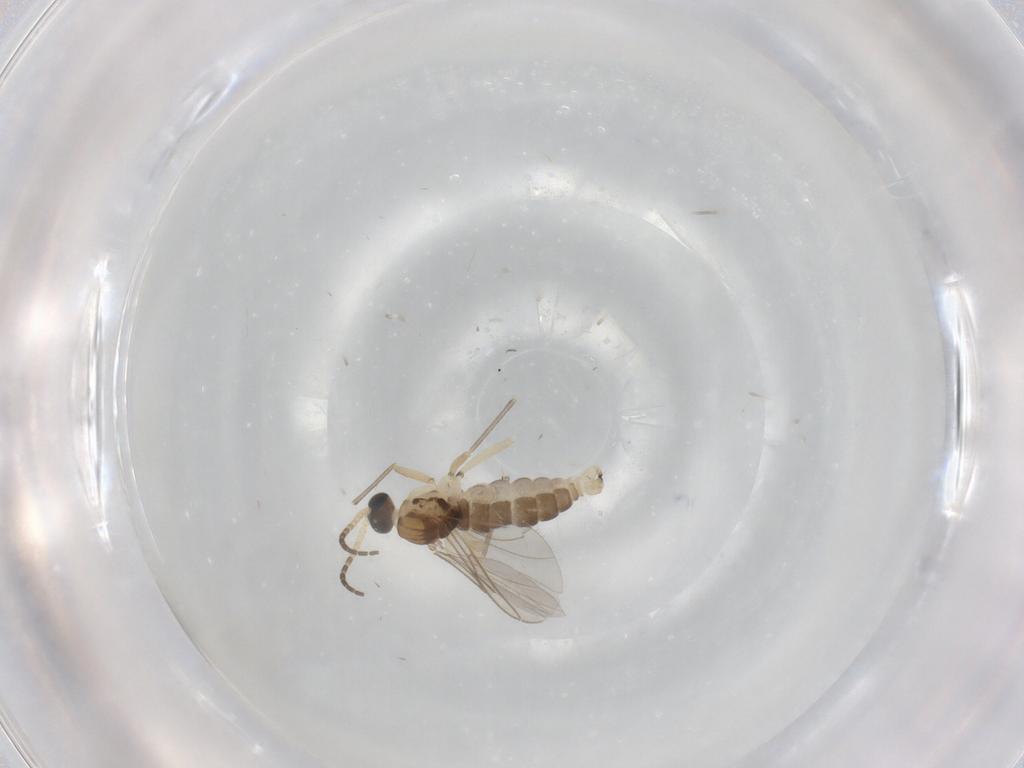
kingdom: Animalia
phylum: Arthropoda
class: Insecta
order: Diptera
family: Ceratopogonidae
